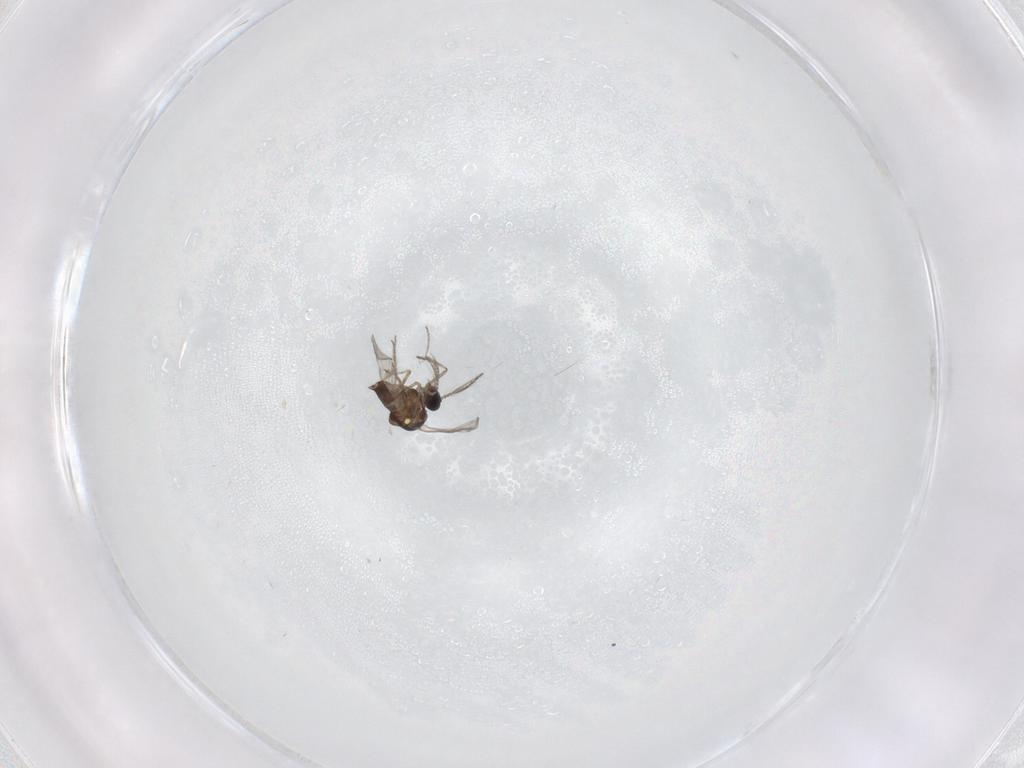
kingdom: Animalia
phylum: Arthropoda
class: Insecta
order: Diptera
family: Ceratopogonidae
